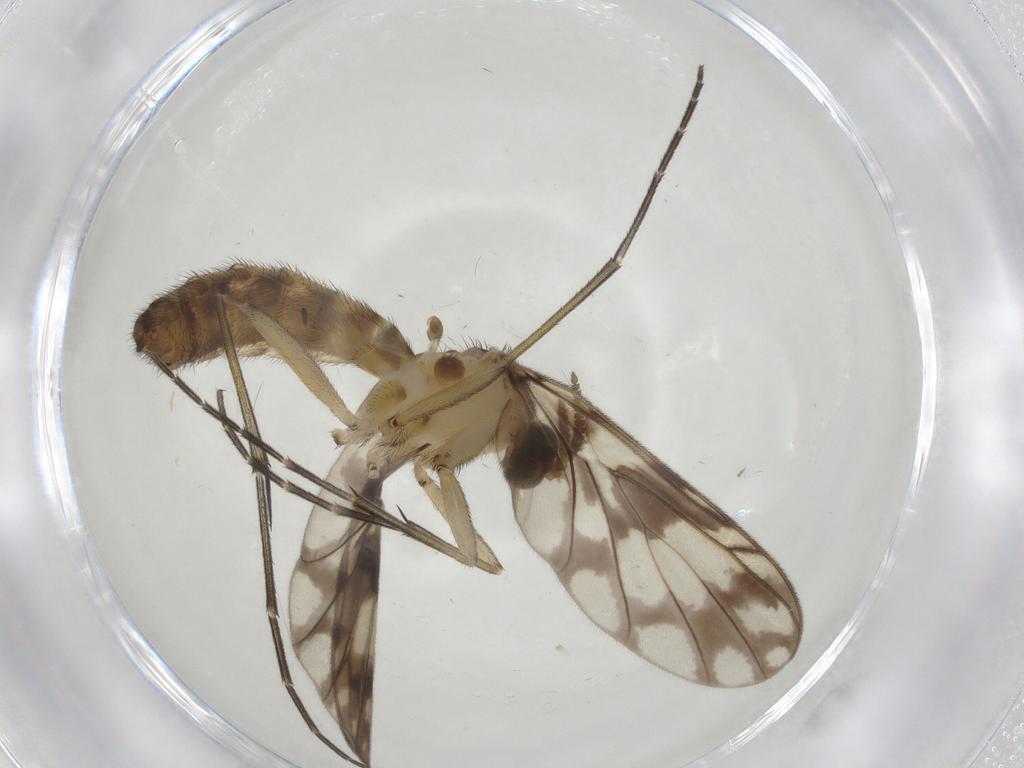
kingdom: Animalia
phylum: Arthropoda
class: Insecta
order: Diptera
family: Keroplatidae
